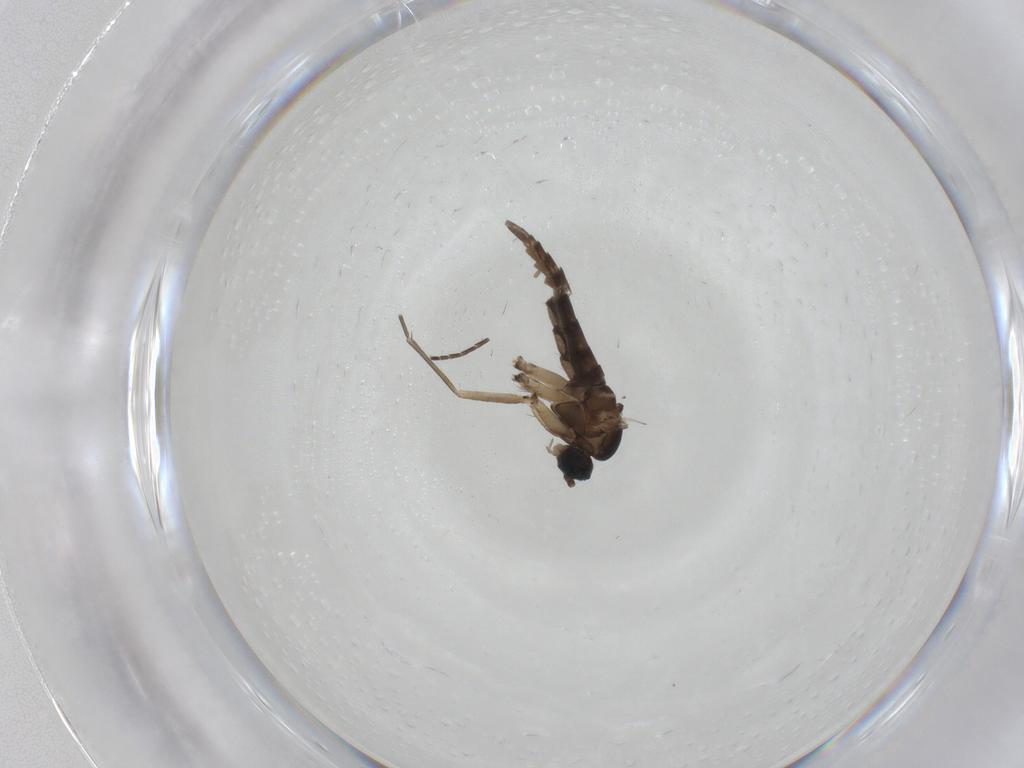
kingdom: Animalia
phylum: Arthropoda
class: Insecta
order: Diptera
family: Sciaridae
